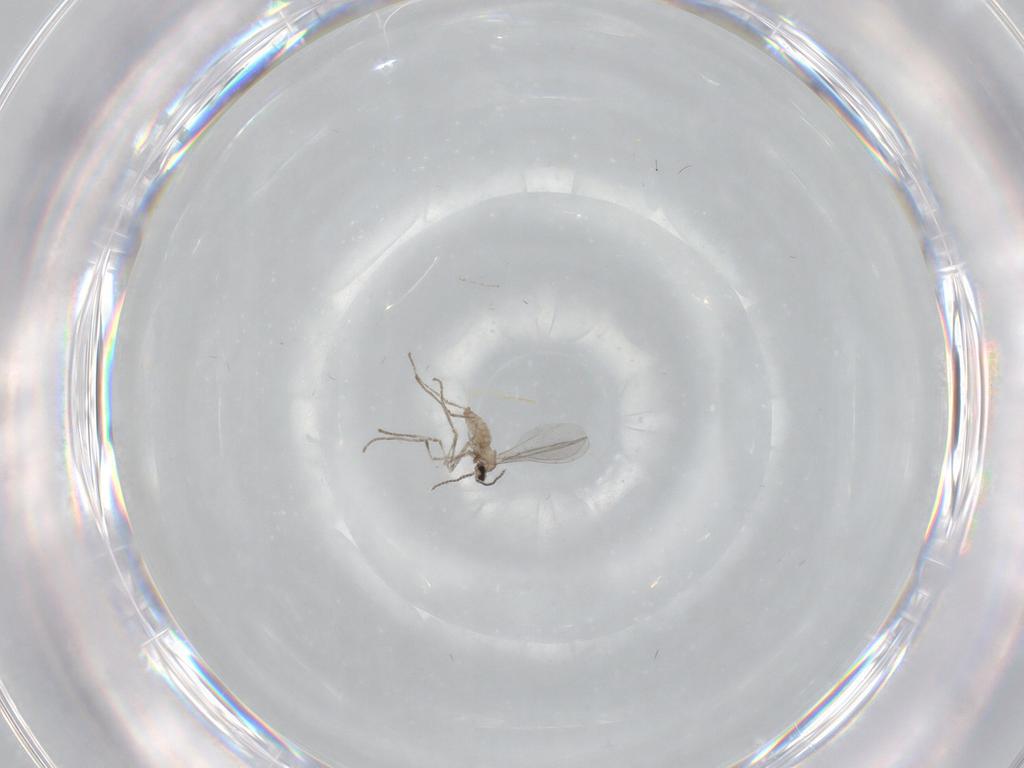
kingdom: Animalia
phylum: Arthropoda
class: Insecta
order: Diptera
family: Cecidomyiidae
